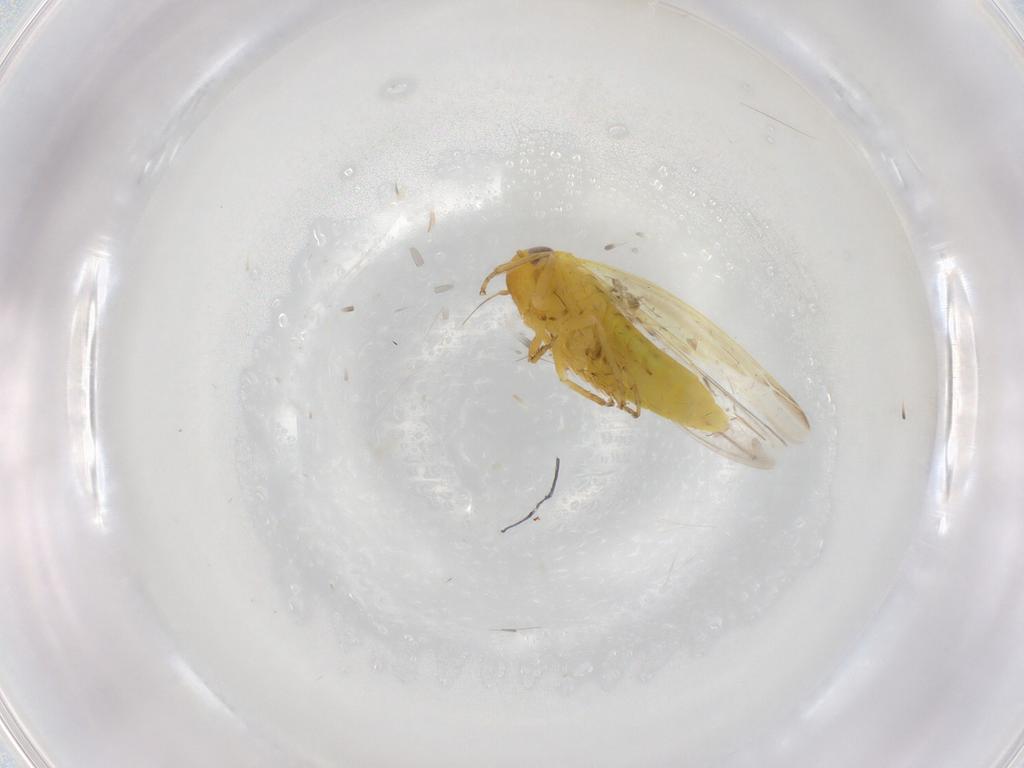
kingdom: Animalia
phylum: Arthropoda
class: Insecta
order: Hemiptera
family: Cicadellidae
